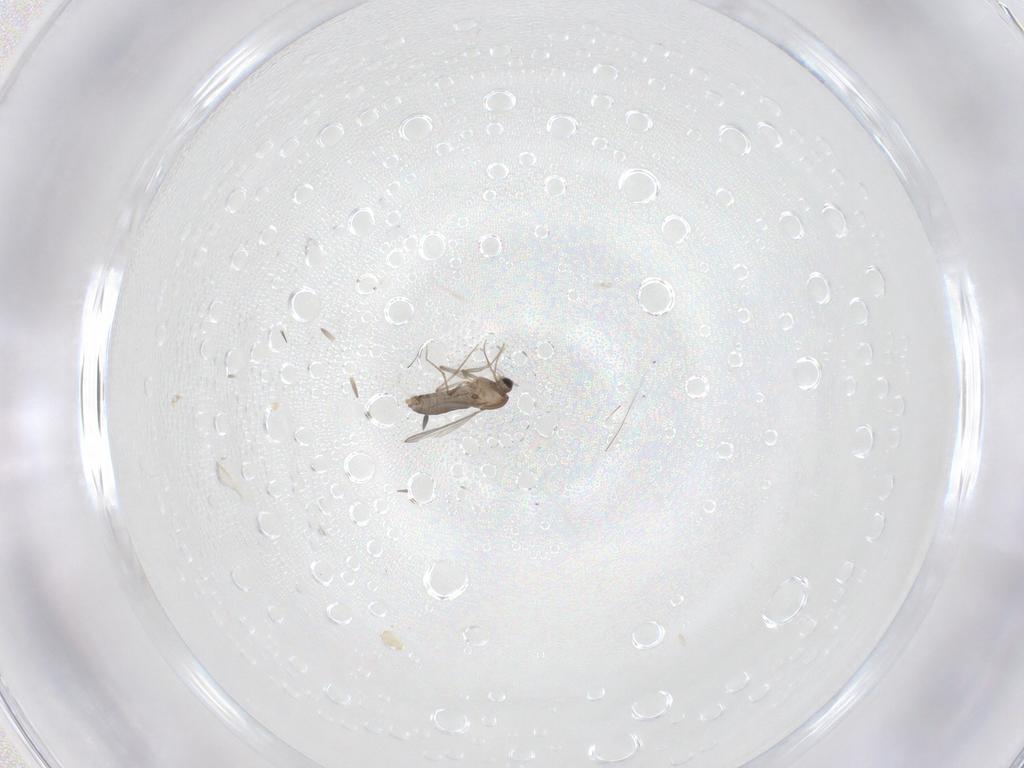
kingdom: Animalia
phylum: Arthropoda
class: Insecta
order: Diptera
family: Chironomidae
